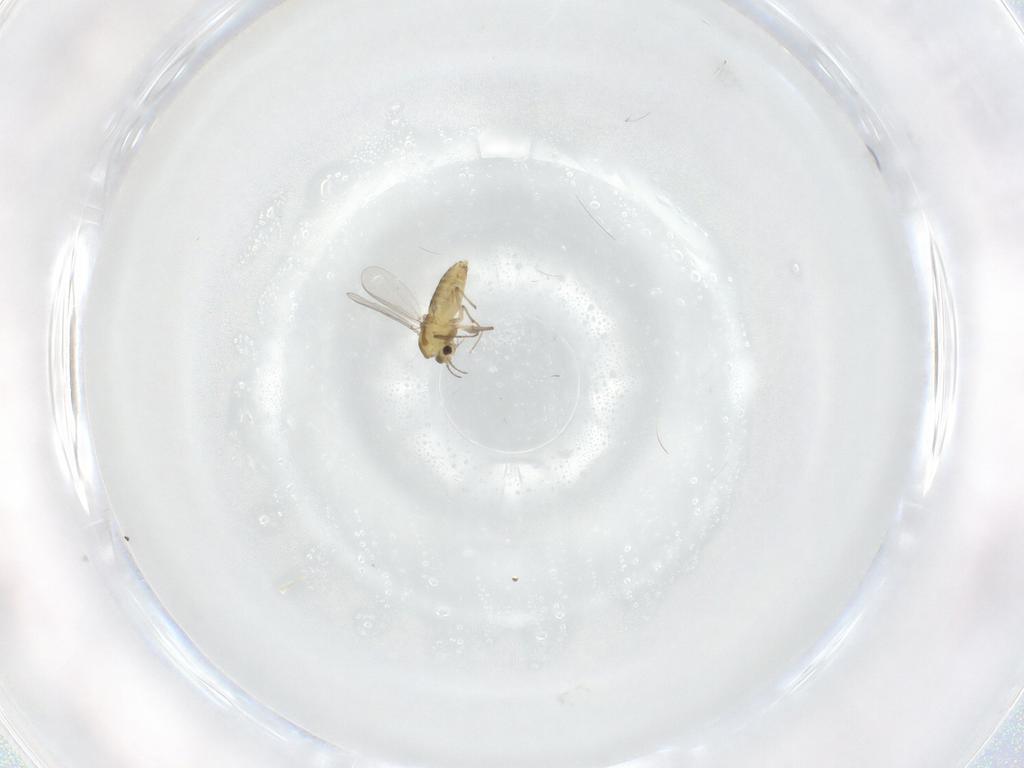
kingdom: Animalia
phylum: Arthropoda
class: Insecta
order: Diptera
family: Chironomidae
